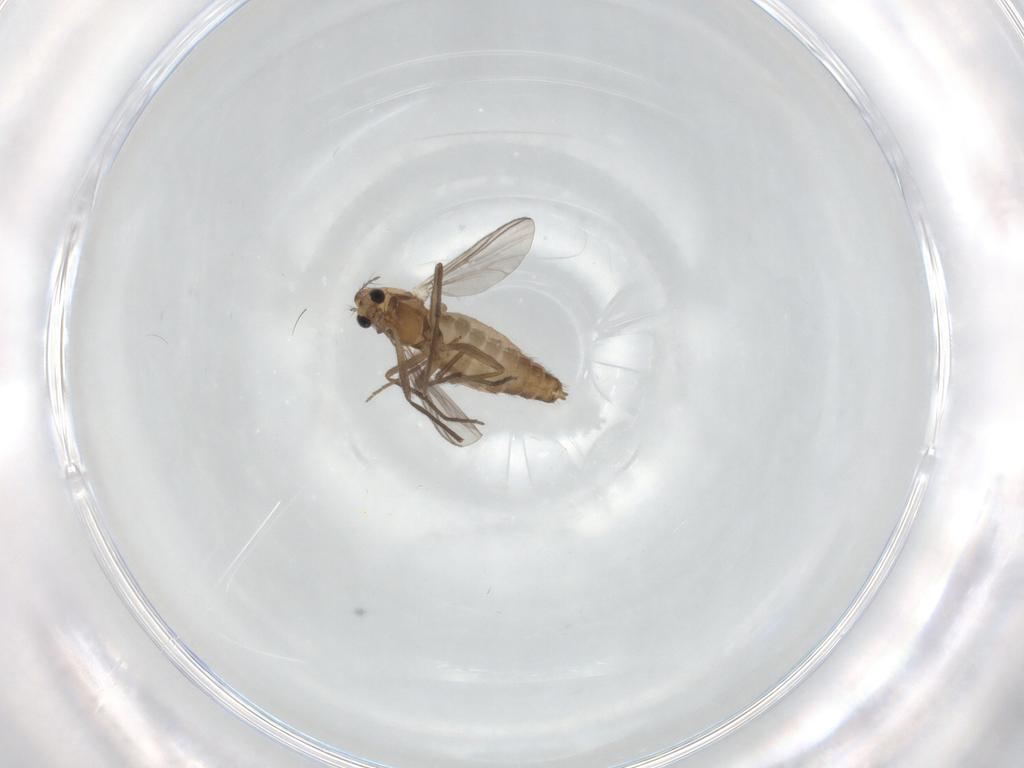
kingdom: Animalia
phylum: Arthropoda
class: Insecta
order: Diptera
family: Chironomidae
